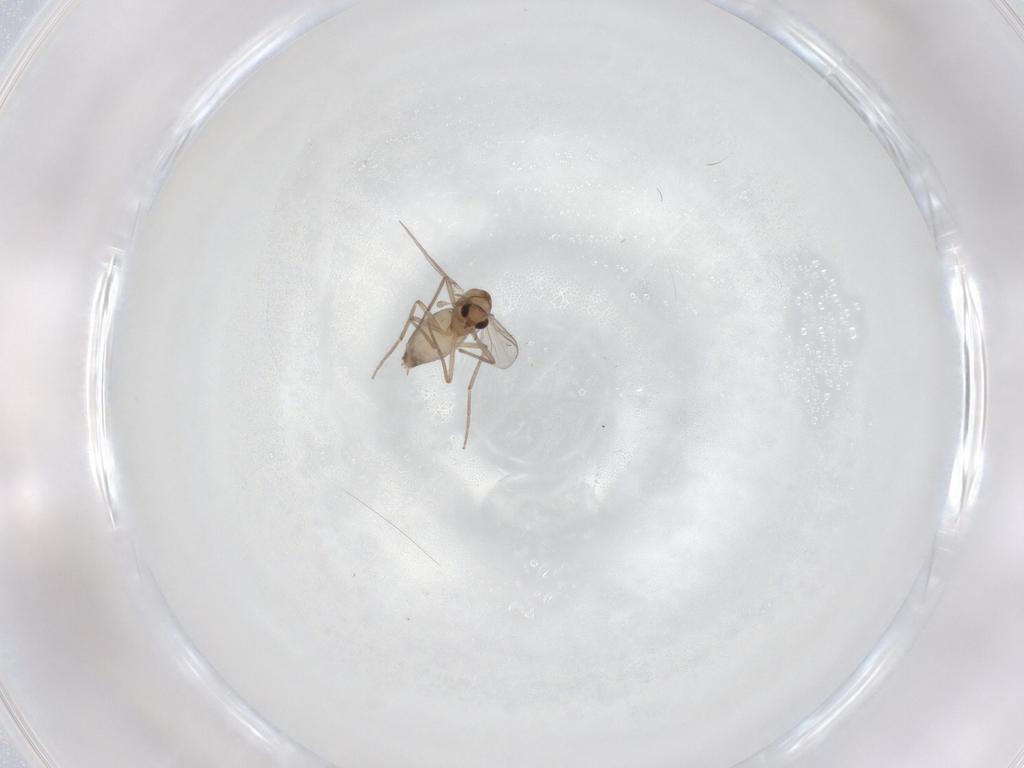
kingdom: Animalia
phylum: Arthropoda
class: Insecta
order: Diptera
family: Chironomidae
